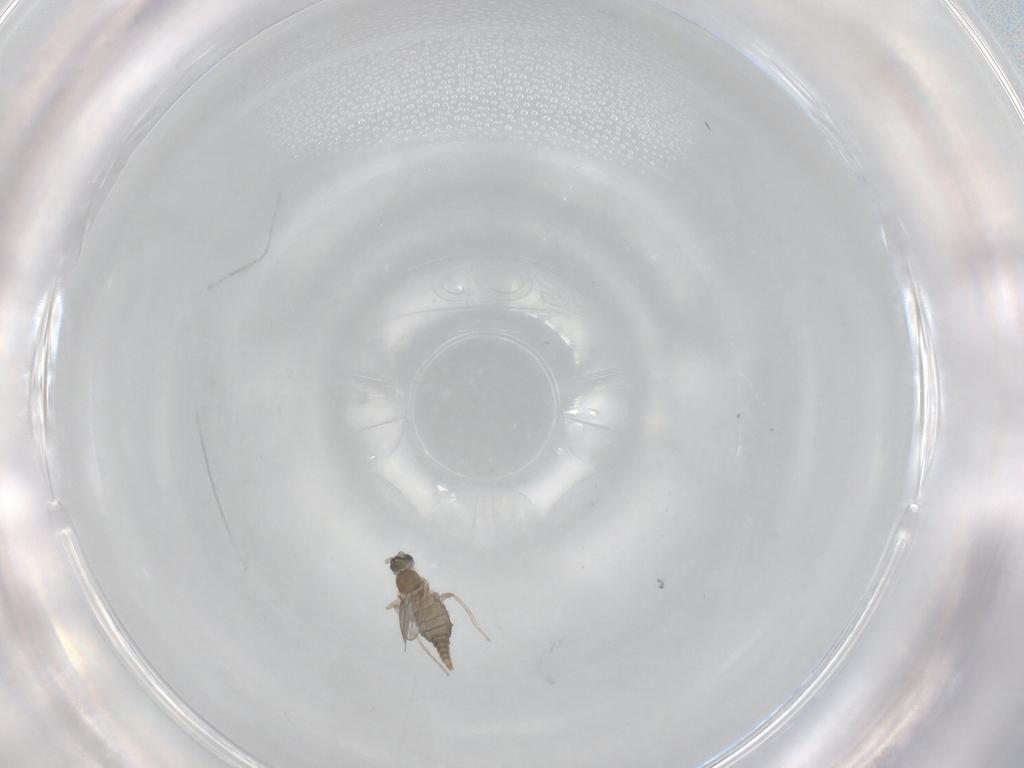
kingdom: Animalia
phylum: Arthropoda
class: Insecta
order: Diptera
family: Cecidomyiidae
